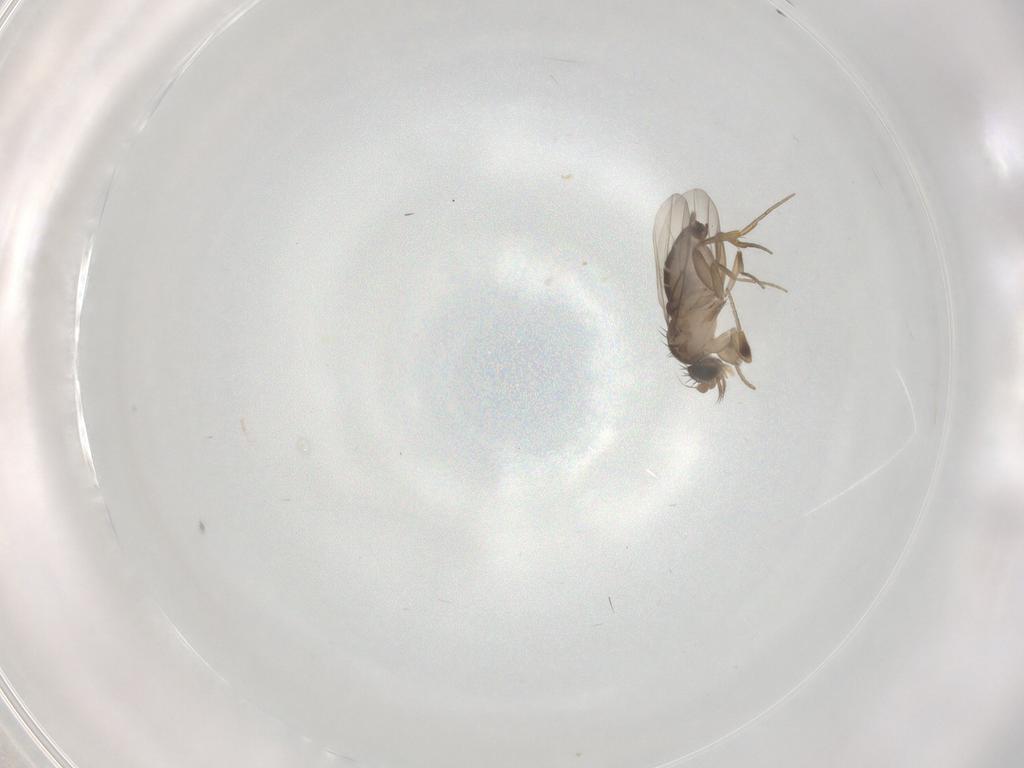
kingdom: Animalia
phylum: Arthropoda
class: Insecta
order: Diptera
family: Phoridae
